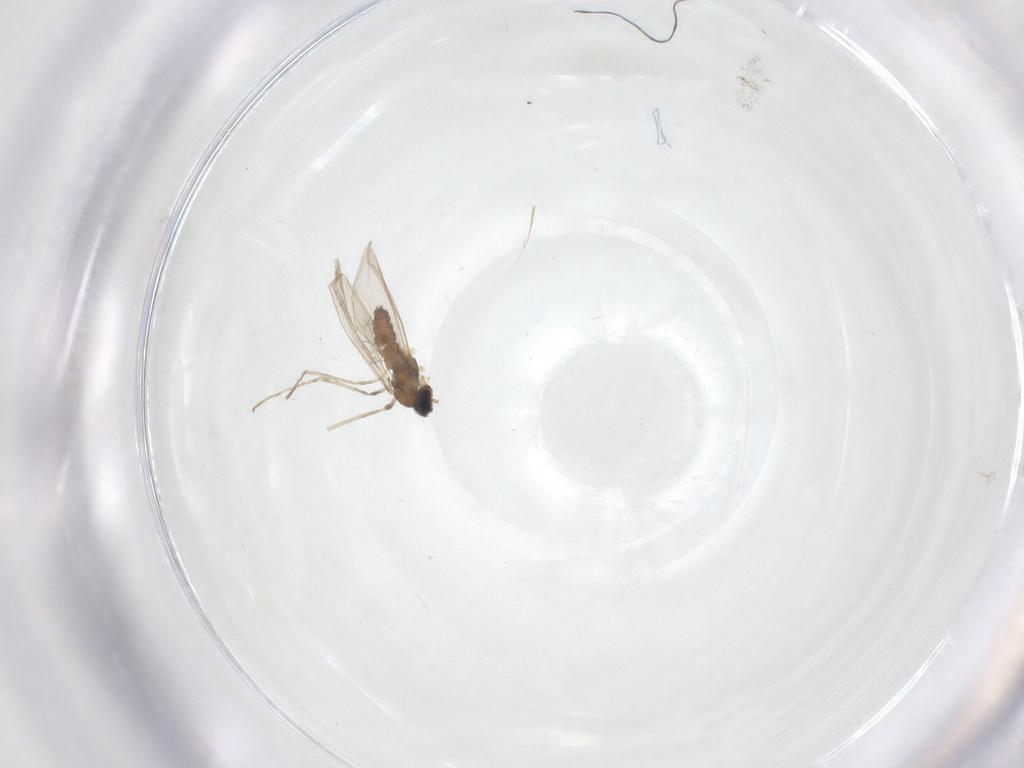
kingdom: Animalia
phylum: Arthropoda
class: Insecta
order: Diptera
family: Cecidomyiidae
